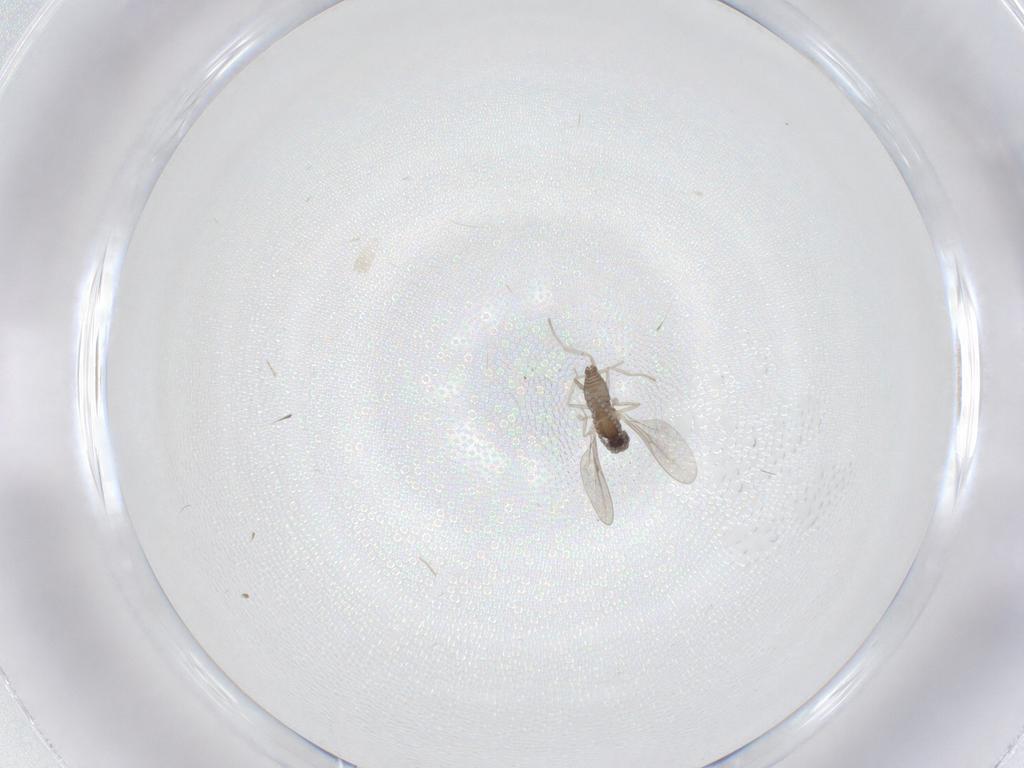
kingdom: Animalia
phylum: Arthropoda
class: Insecta
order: Diptera
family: Cecidomyiidae
